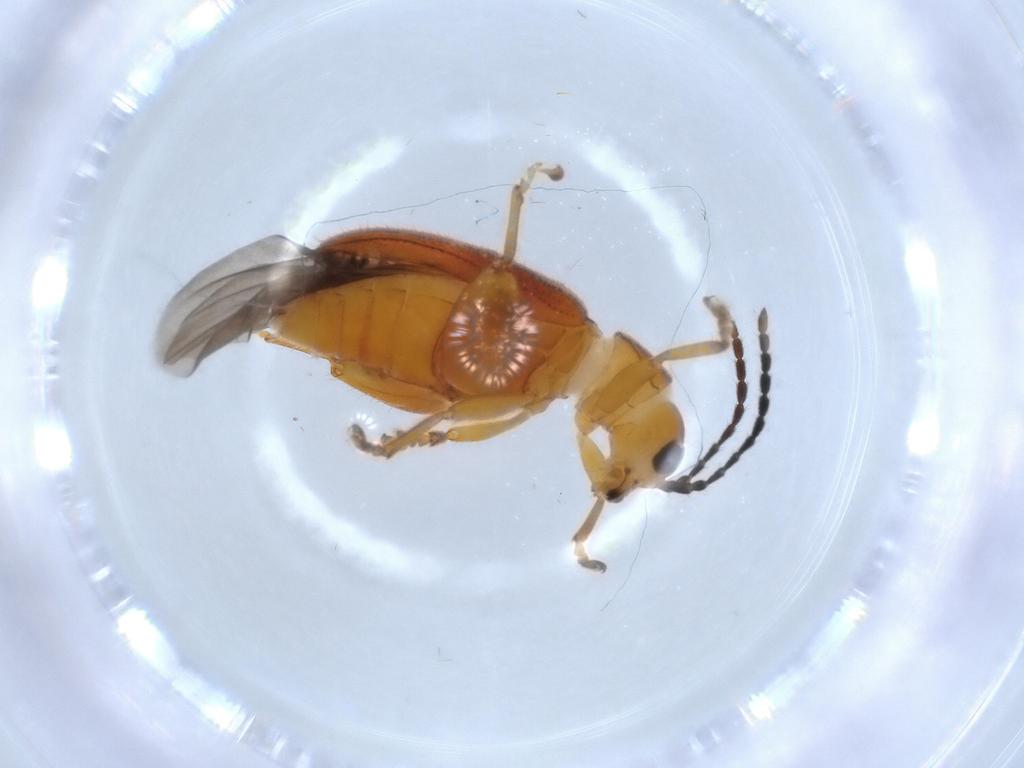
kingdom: Animalia
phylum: Arthropoda
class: Insecta
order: Coleoptera
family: Chrysomelidae
